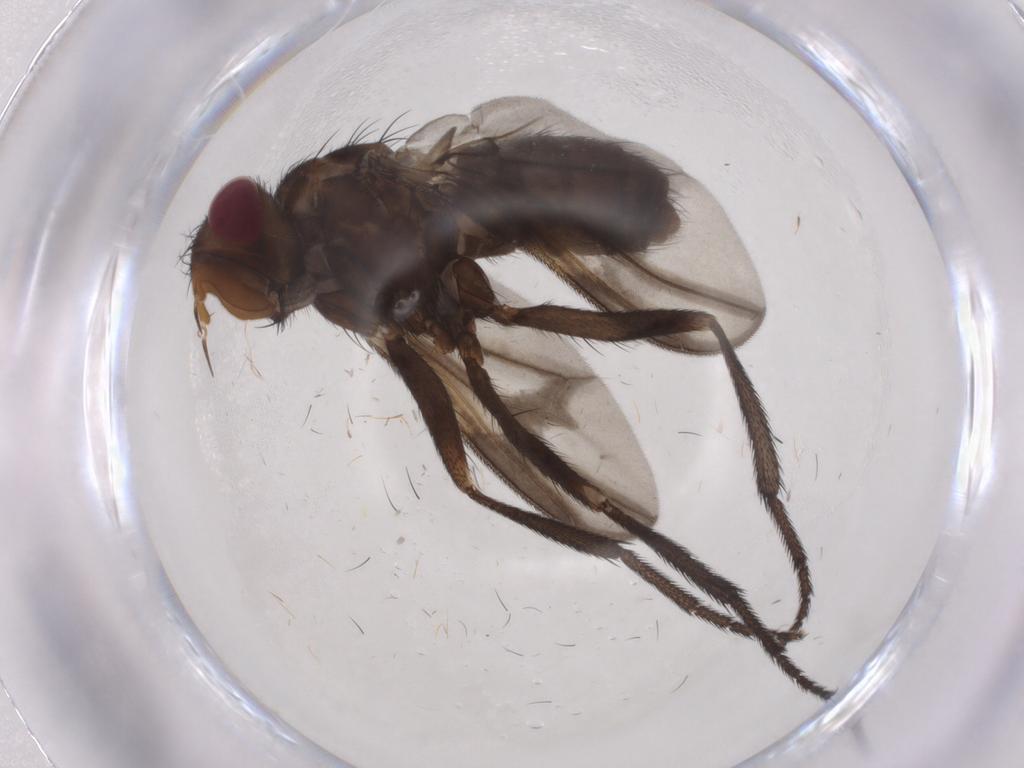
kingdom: Animalia
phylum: Arthropoda
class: Insecta
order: Diptera
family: Calliphoridae
